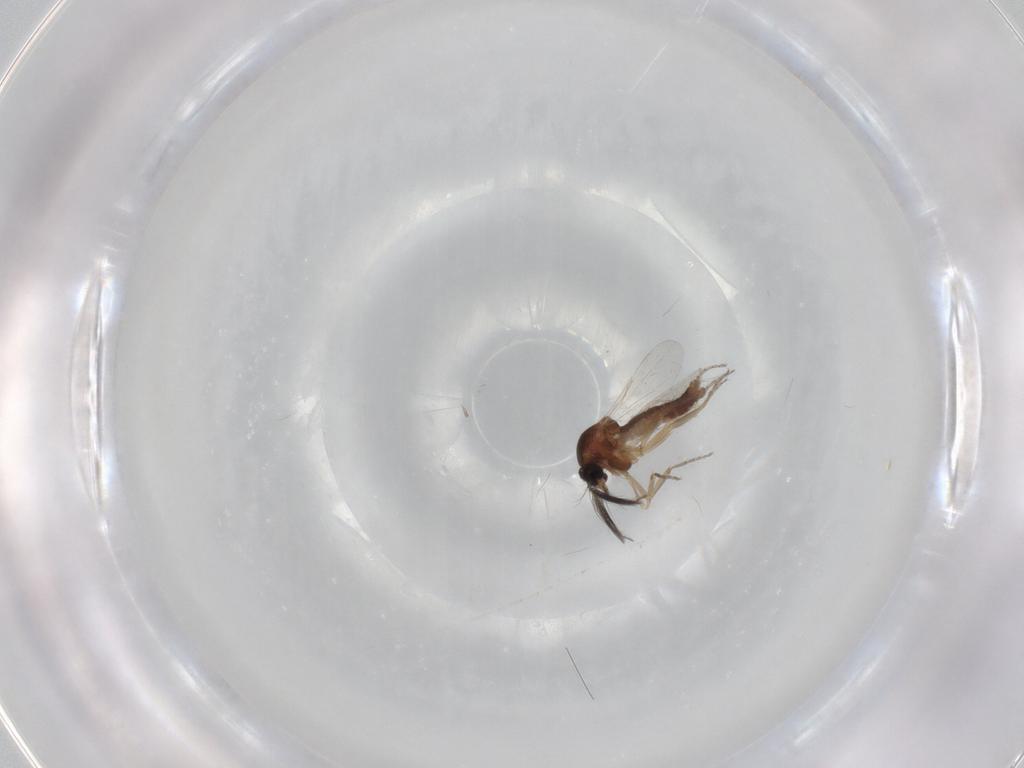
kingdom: Animalia
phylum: Arthropoda
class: Insecta
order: Diptera
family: Ceratopogonidae
